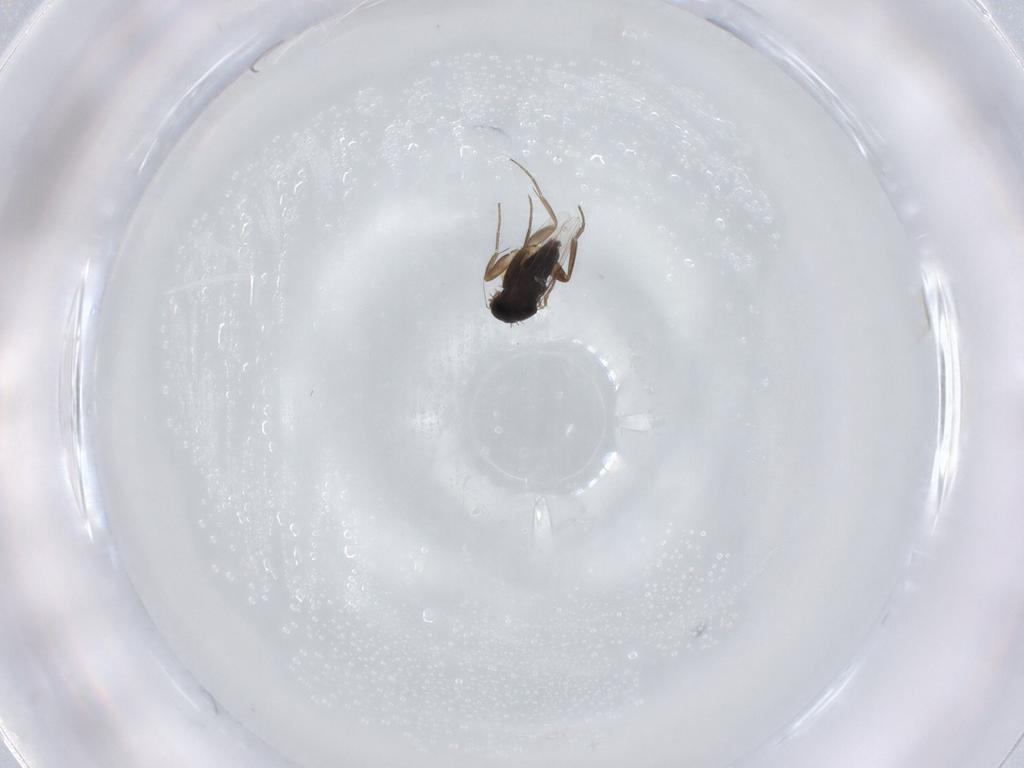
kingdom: Animalia
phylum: Arthropoda
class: Insecta
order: Diptera
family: Phoridae
